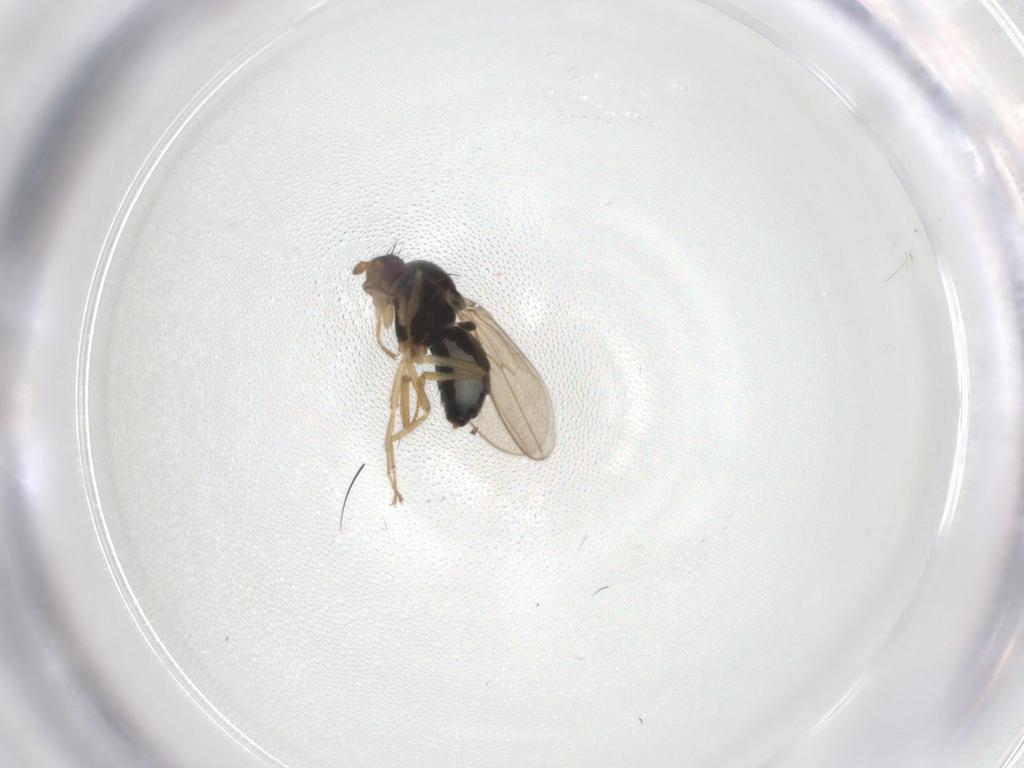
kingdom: Animalia
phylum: Arthropoda
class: Insecta
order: Diptera
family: Sphaeroceridae
